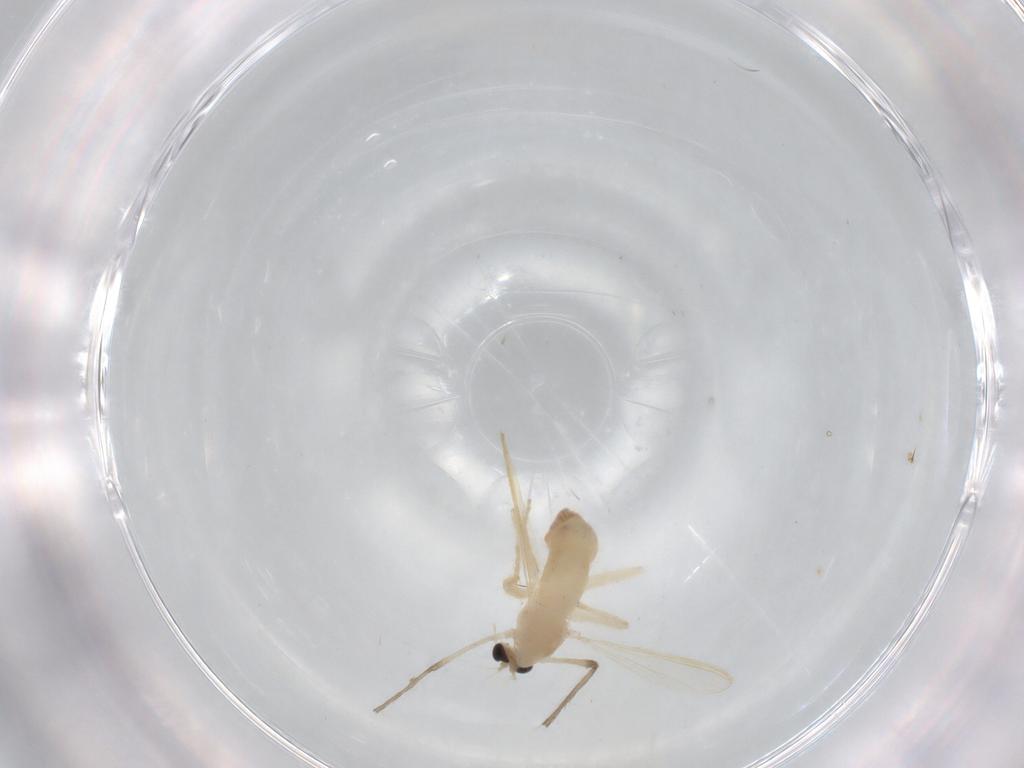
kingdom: Animalia
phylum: Arthropoda
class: Insecta
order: Diptera
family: Chironomidae
